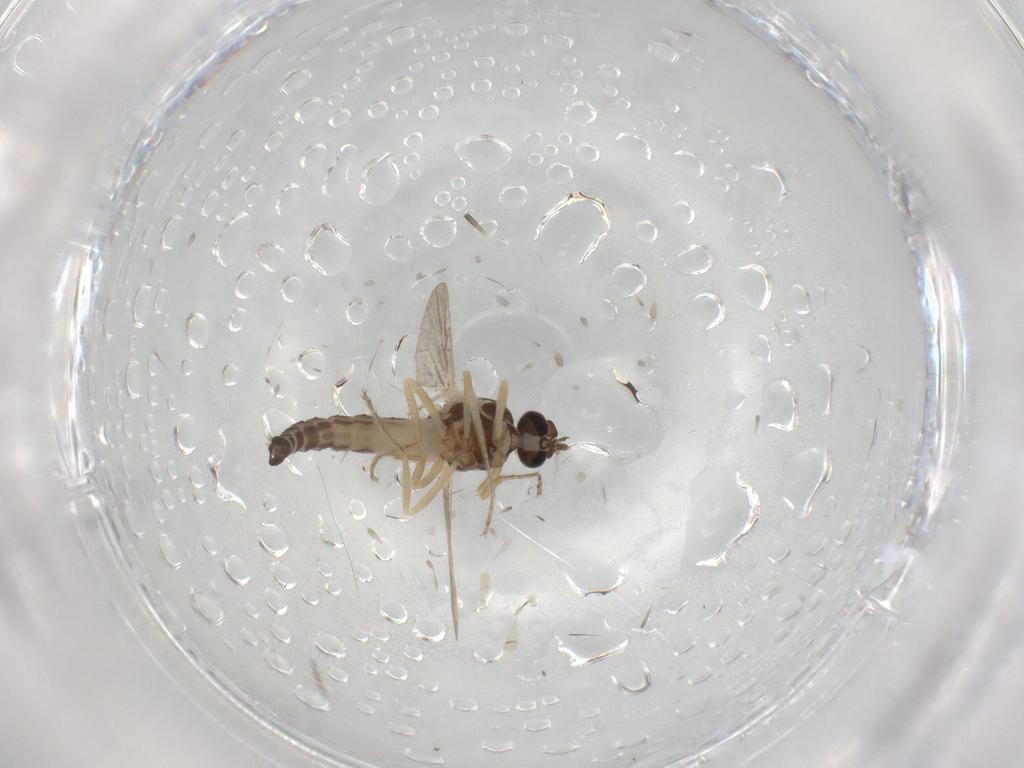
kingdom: Animalia
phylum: Arthropoda
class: Insecta
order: Diptera
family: Ceratopogonidae
